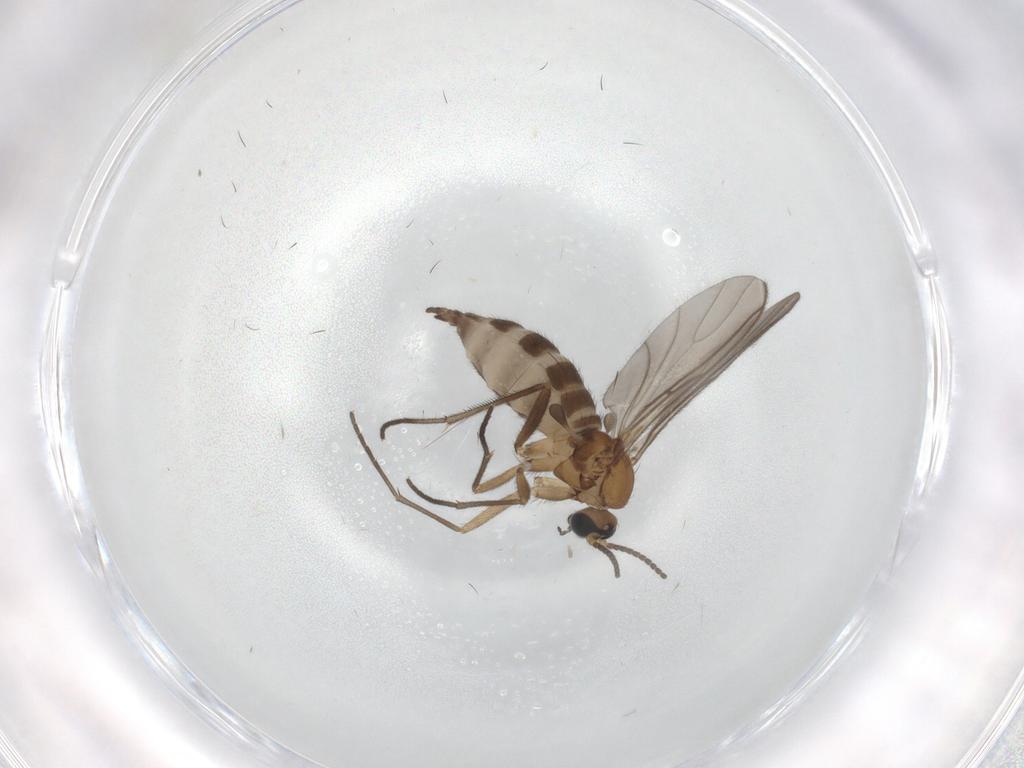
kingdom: Animalia
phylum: Arthropoda
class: Insecta
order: Diptera
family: Sciaridae
